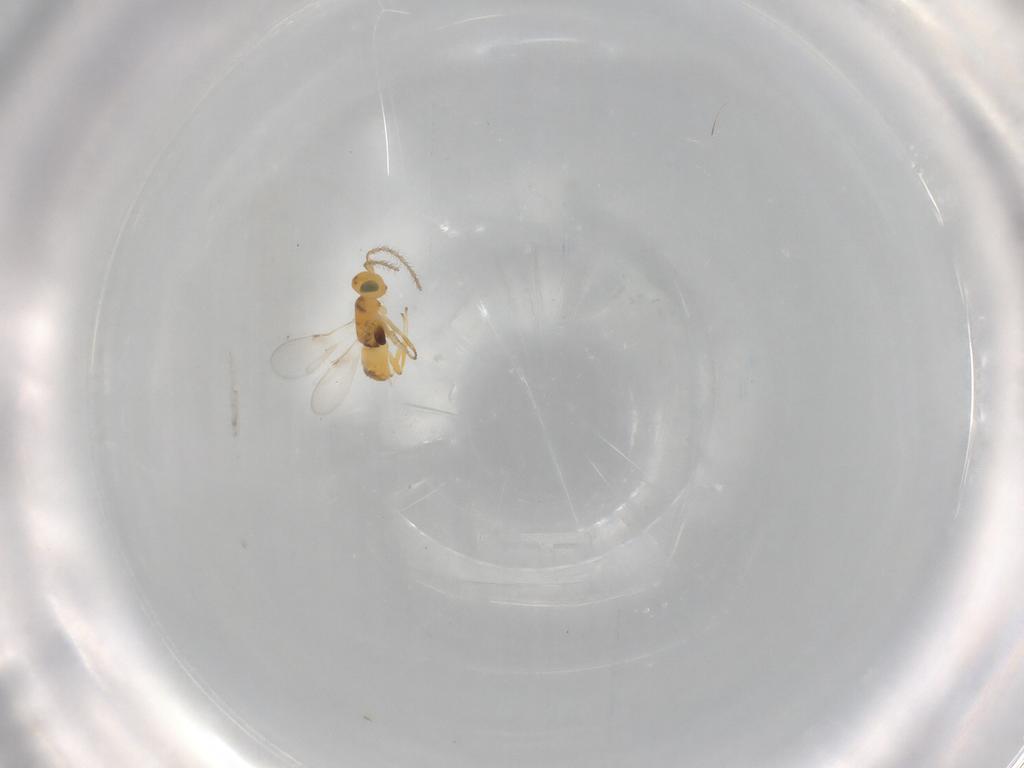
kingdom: Animalia
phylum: Arthropoda
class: Insecta
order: Hymenoptera
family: Encyrtidae
